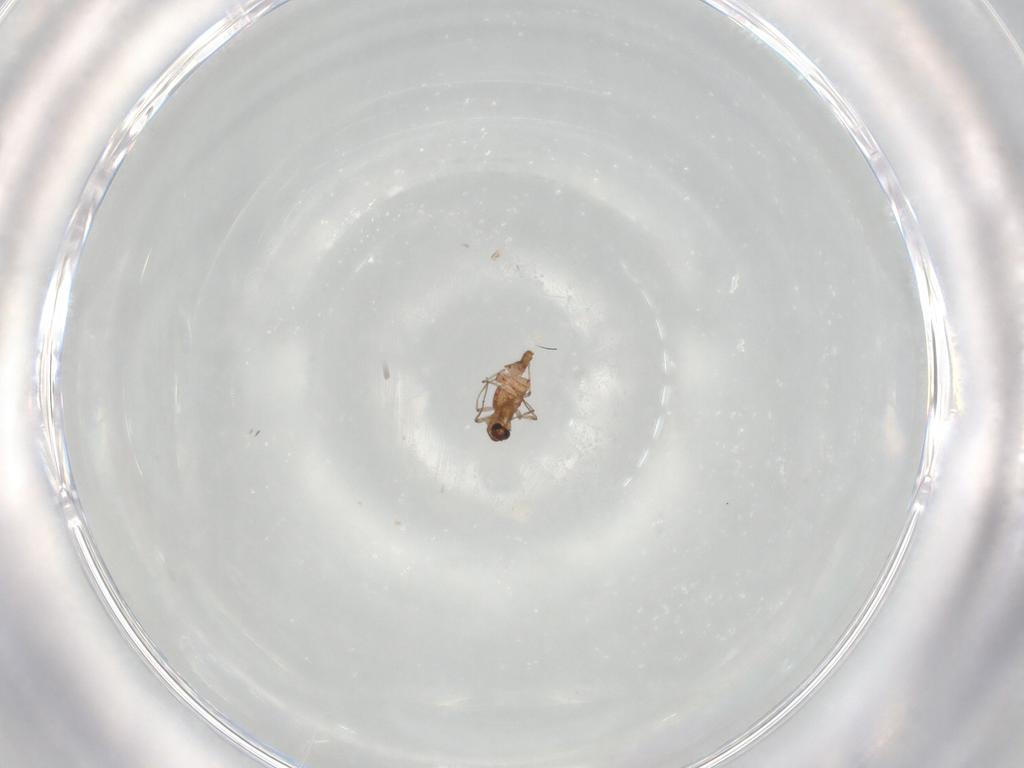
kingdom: Animalia
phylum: Arthropoda
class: Insecta
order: Diptera
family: Chironomidae
